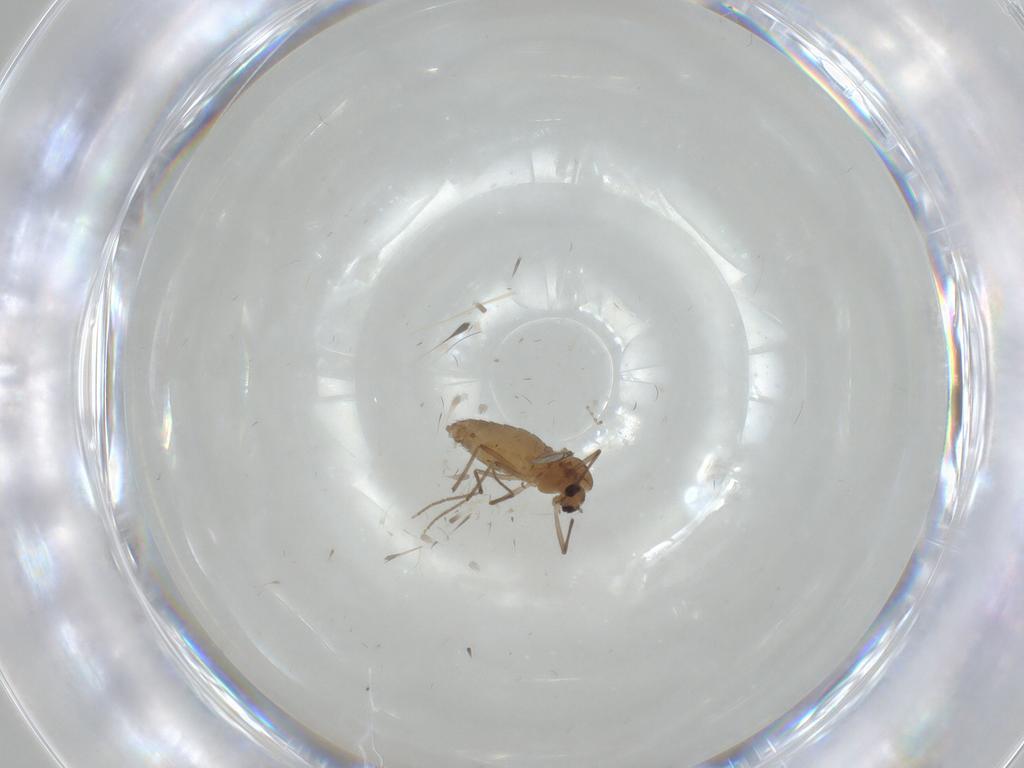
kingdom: Animalia
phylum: Arthropoda
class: Insecta
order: Diptera
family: Chironomidae
